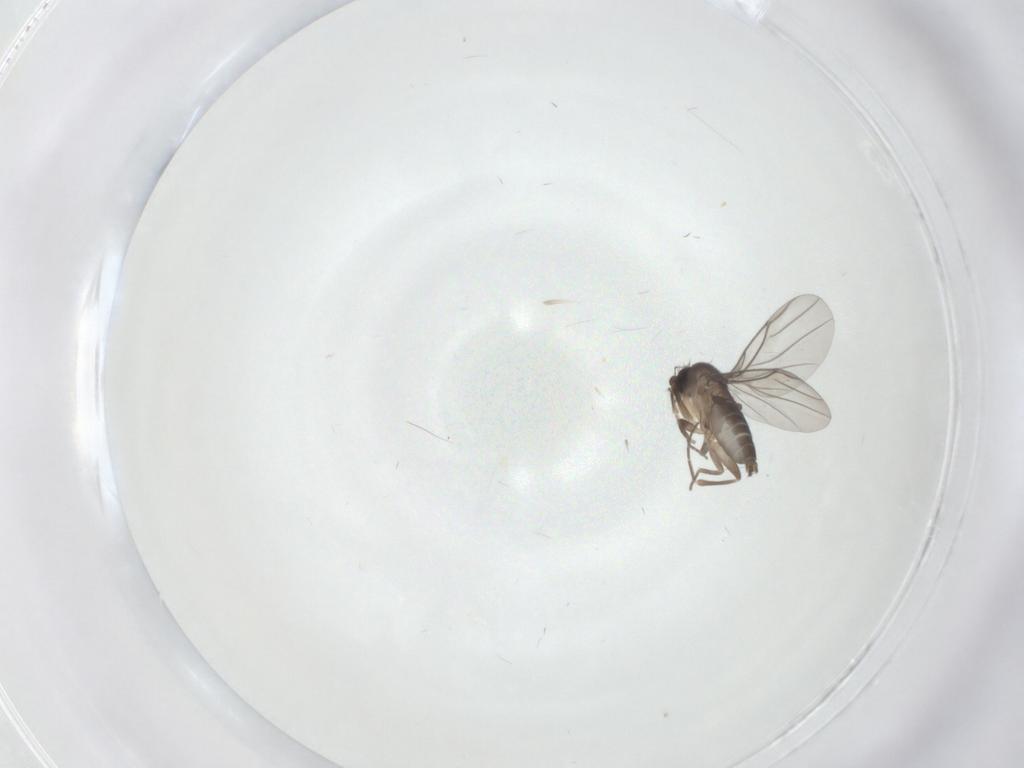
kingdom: Animalia
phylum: Arthropoda
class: Insecta
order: Diptera
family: Sciaridae
